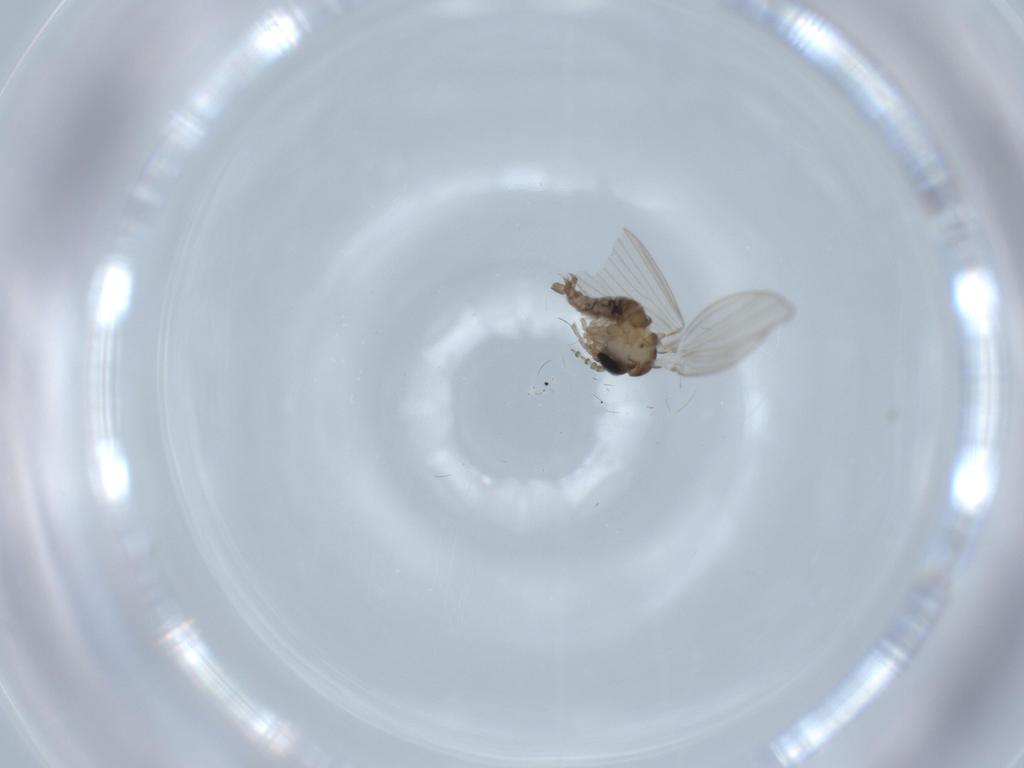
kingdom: Animalia
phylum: Arthropoda
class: Insecta
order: Diptera
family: Psychodidae
